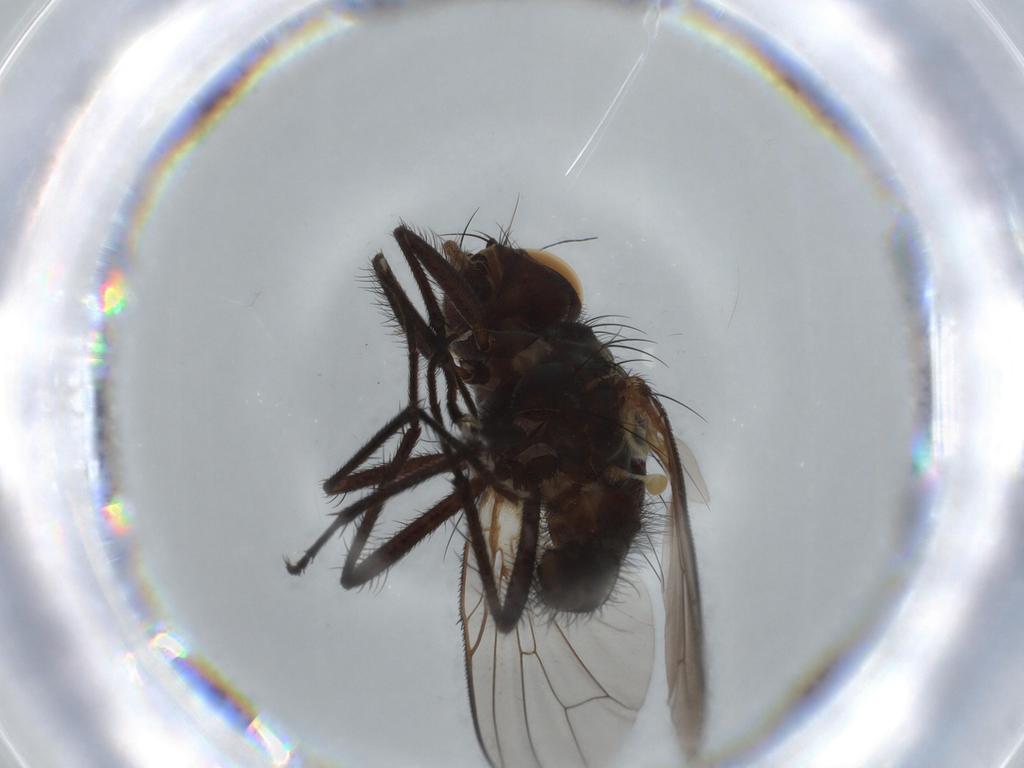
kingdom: Animalia
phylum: Arthropoda
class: Insecta
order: Diptera
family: Anthomyiidae
